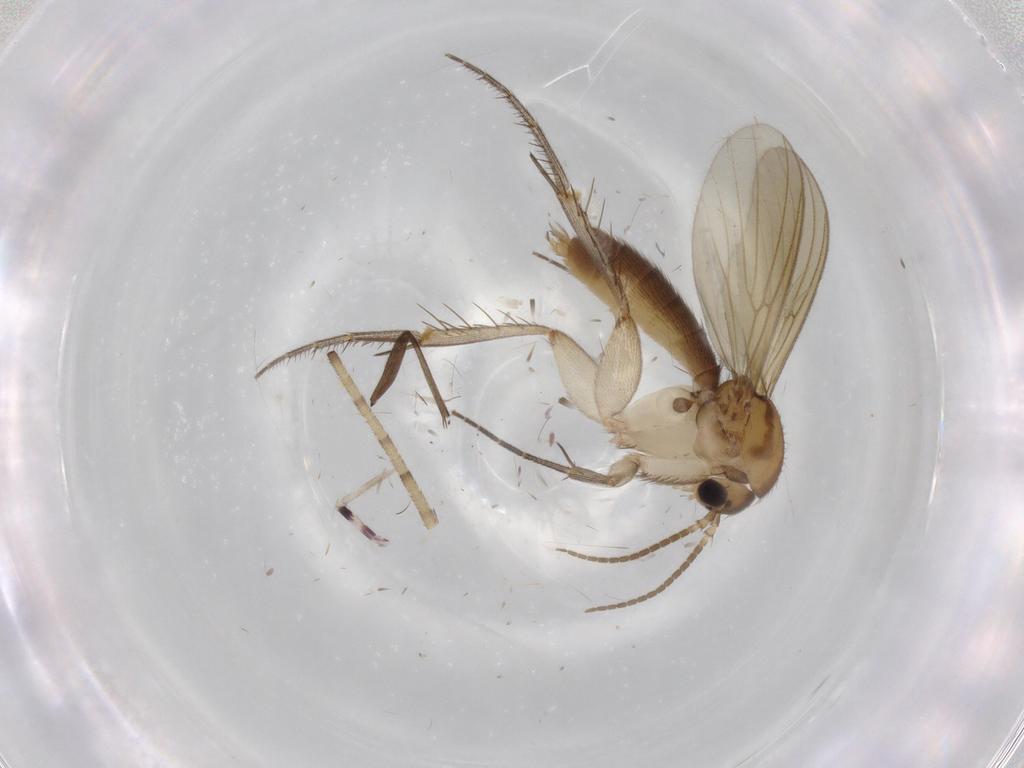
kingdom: Animalia
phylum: Arthropoda
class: Insecta
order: Diptera
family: Mycetophilidae
